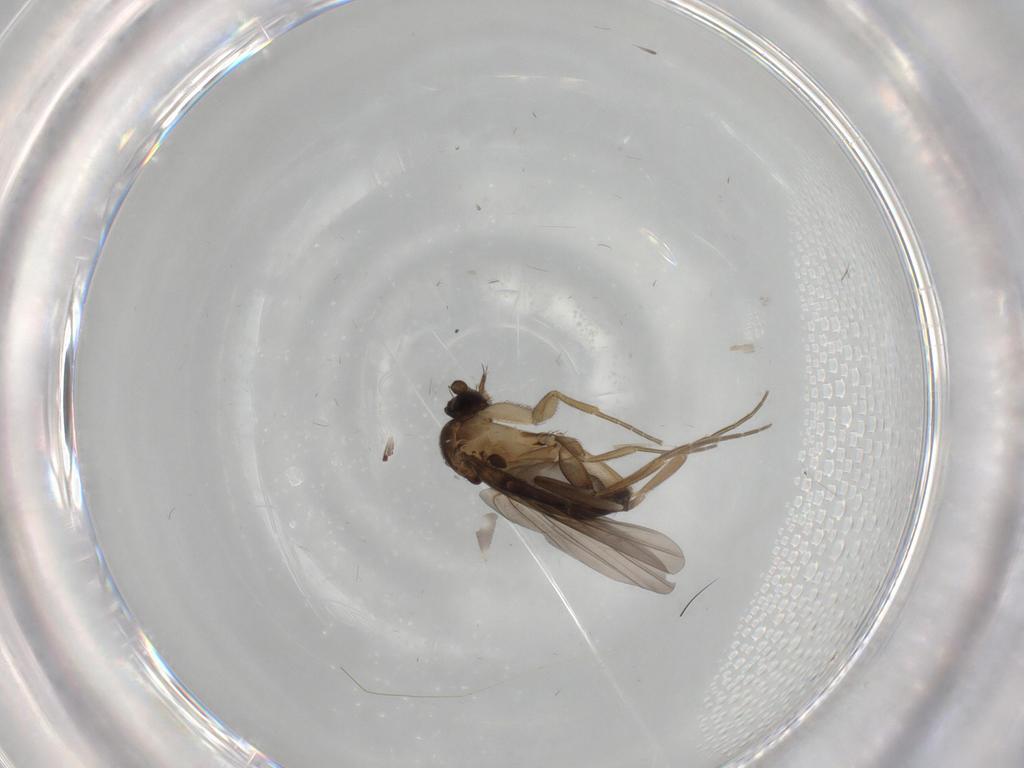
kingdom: Animalia
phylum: Arthropoda
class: Insecta
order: Diptera
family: Chironomidae
